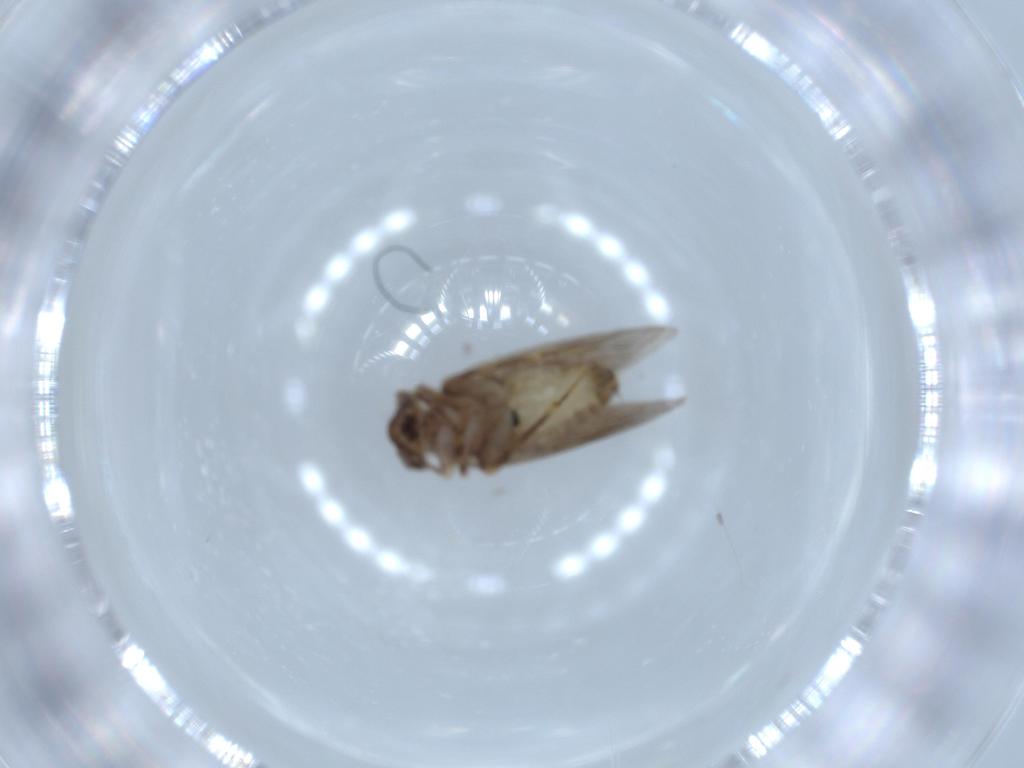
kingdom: Animalia
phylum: Arthropoda
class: Insecta
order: Psocodea
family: Lepidopsocidae
